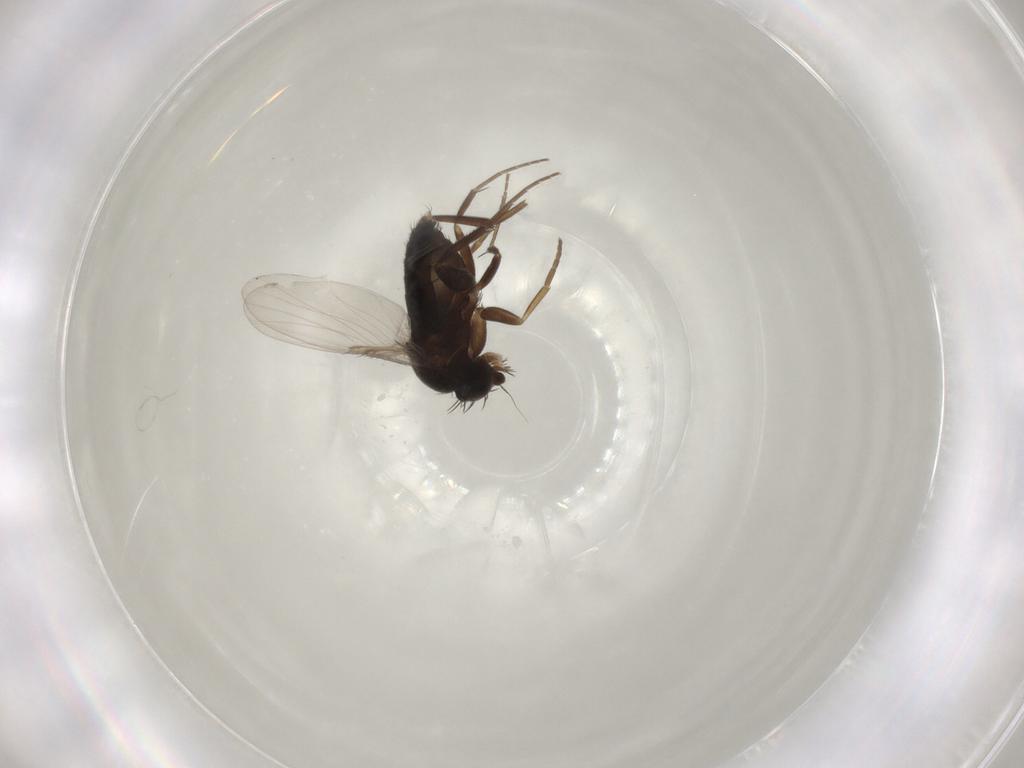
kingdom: Animalia
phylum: Arthropoda
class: Insecta
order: Diptera
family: Phoridae
